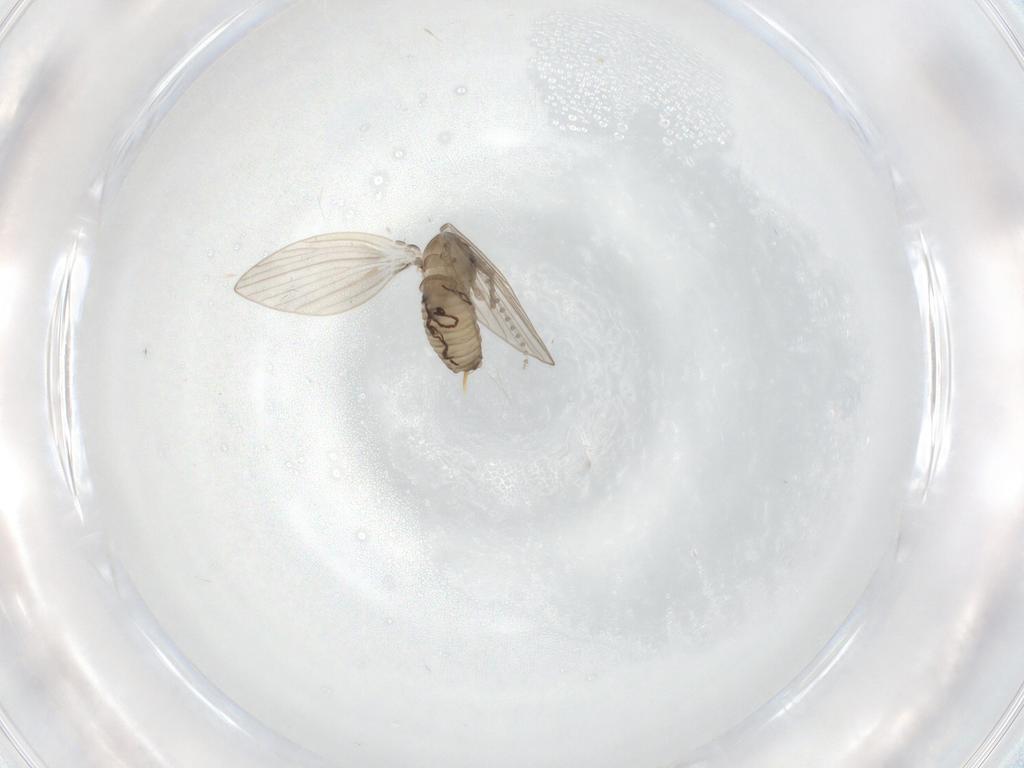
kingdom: Animalia
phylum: Arthropoda
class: Insecta
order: Diptera
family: Psychodidae
